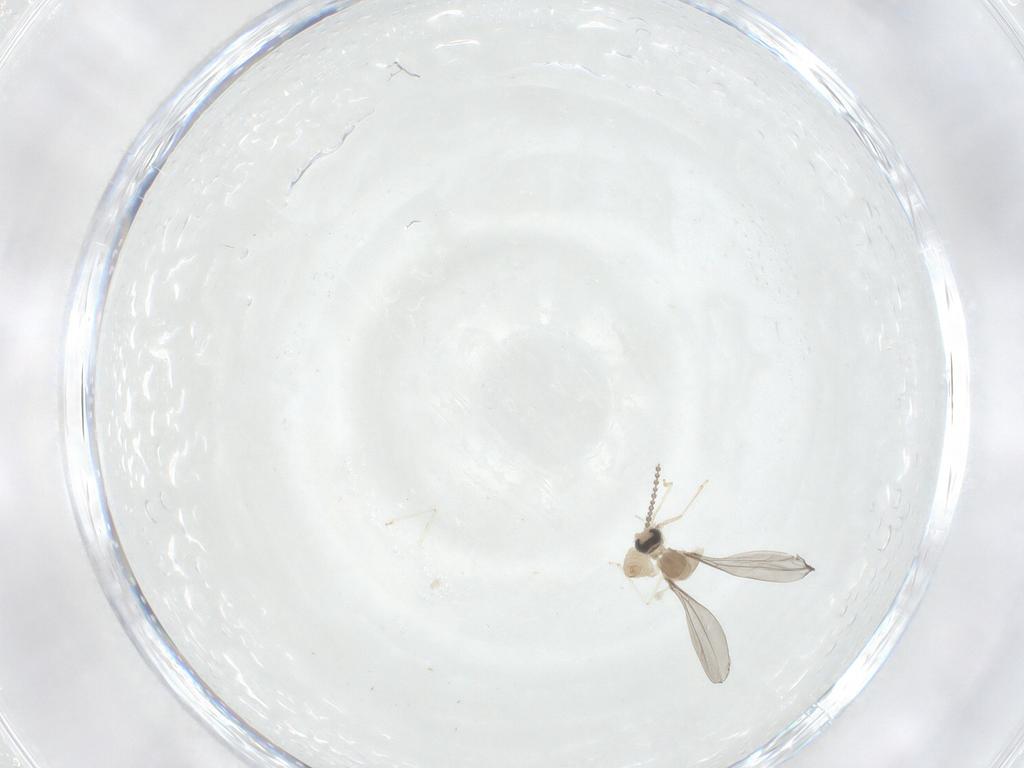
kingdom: Animalia
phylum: Arthropoda
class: Insecta
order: Diptera
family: Cecidomyiidae
